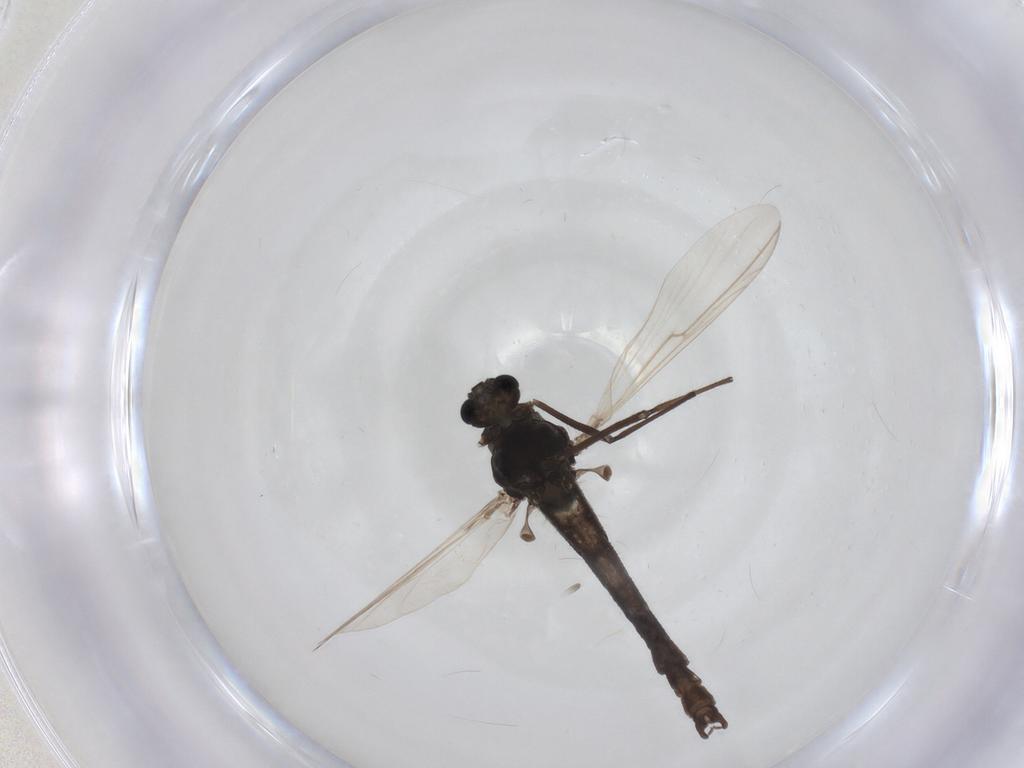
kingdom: Animalia
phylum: Arthropoda
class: Insecta
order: Diptera
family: Chironomidae
